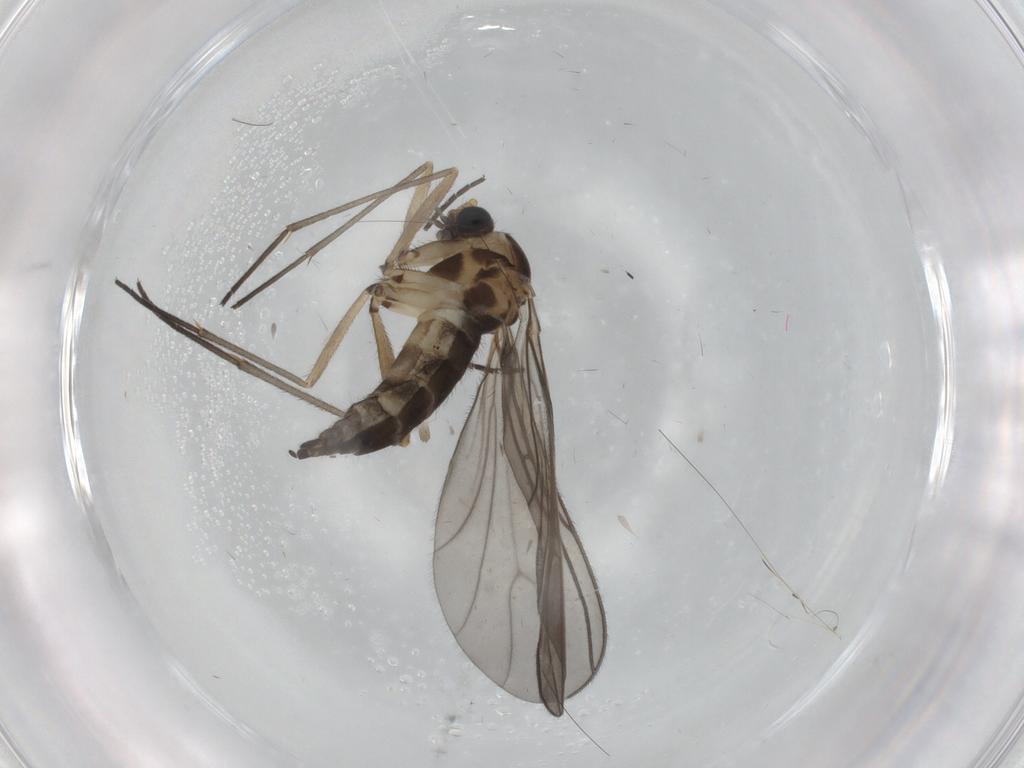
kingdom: Animalia
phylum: Arthropoda
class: Insecta
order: Diptera
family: Sciaridae
